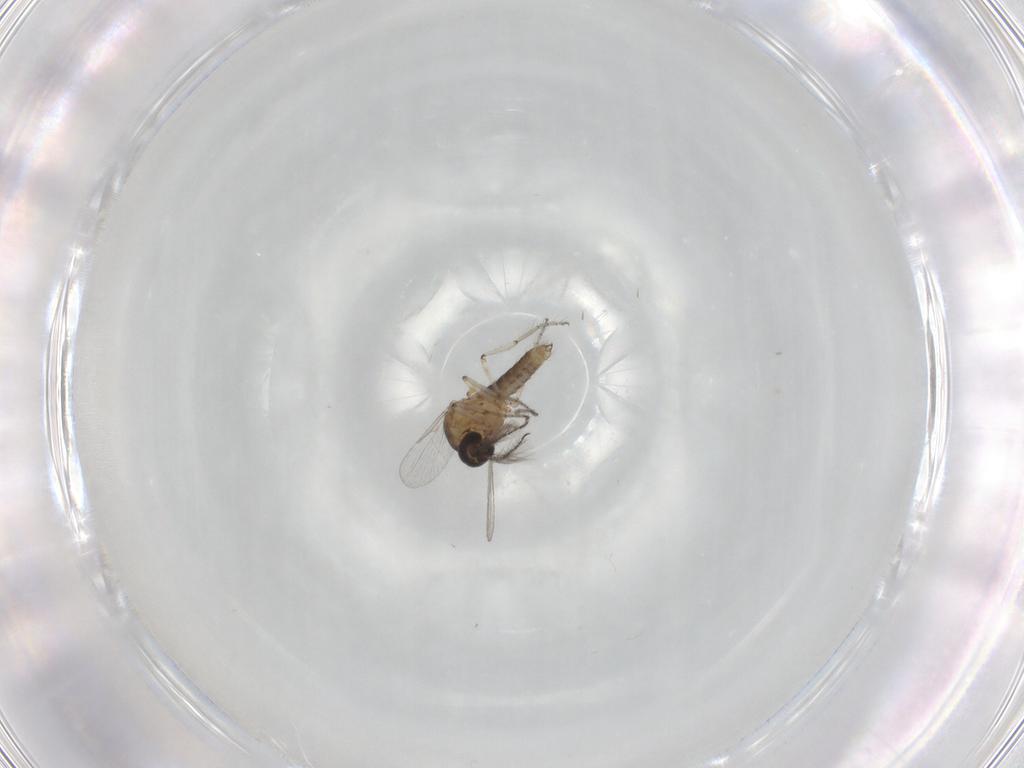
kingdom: Animalia
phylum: Arthropoda
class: Insecta
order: Diptera
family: Ceratopogonidae
